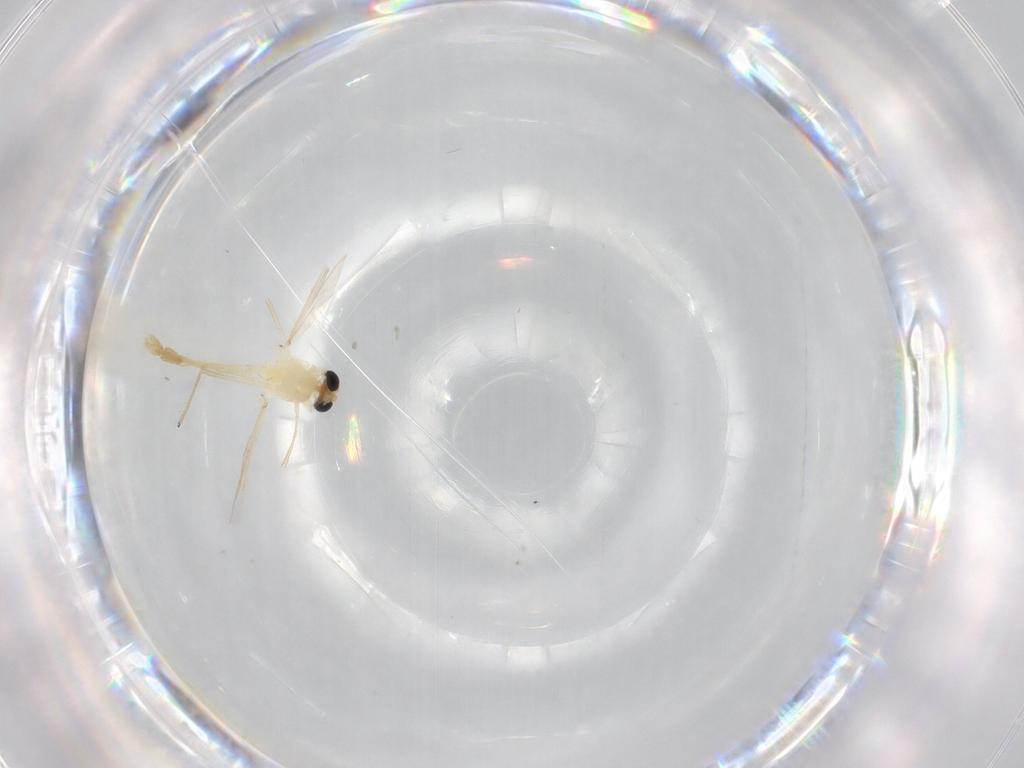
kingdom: Animalia
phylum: Arthropoda
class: Insecta
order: Diptera
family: Chironomidae
